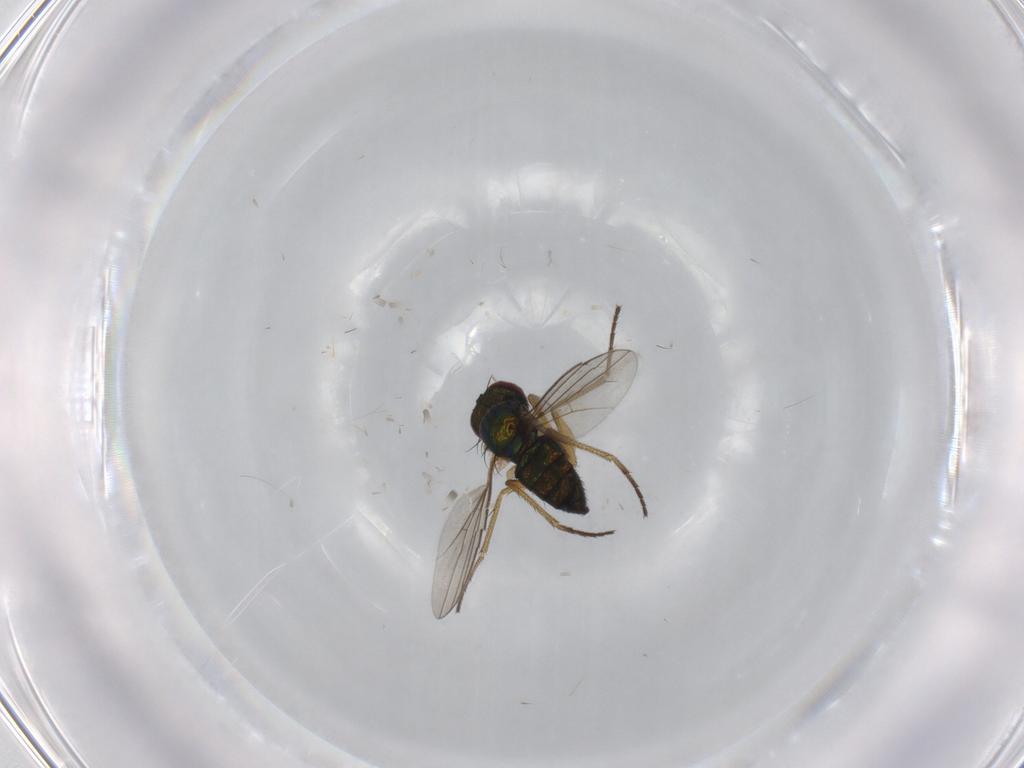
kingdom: Animalia
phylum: Arthropoda
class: Insecta
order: Diptera
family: Dolichopodidae
